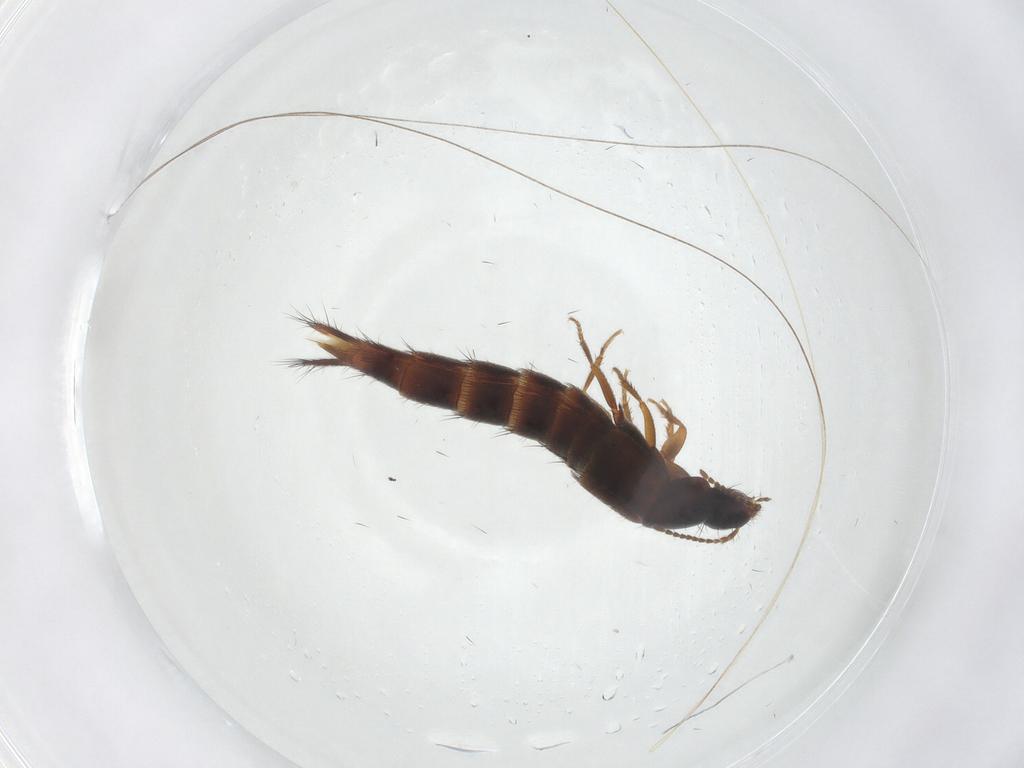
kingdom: Animalia
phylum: Arthropoda
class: Insecta
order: Coleoptera
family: Staphylinidae
